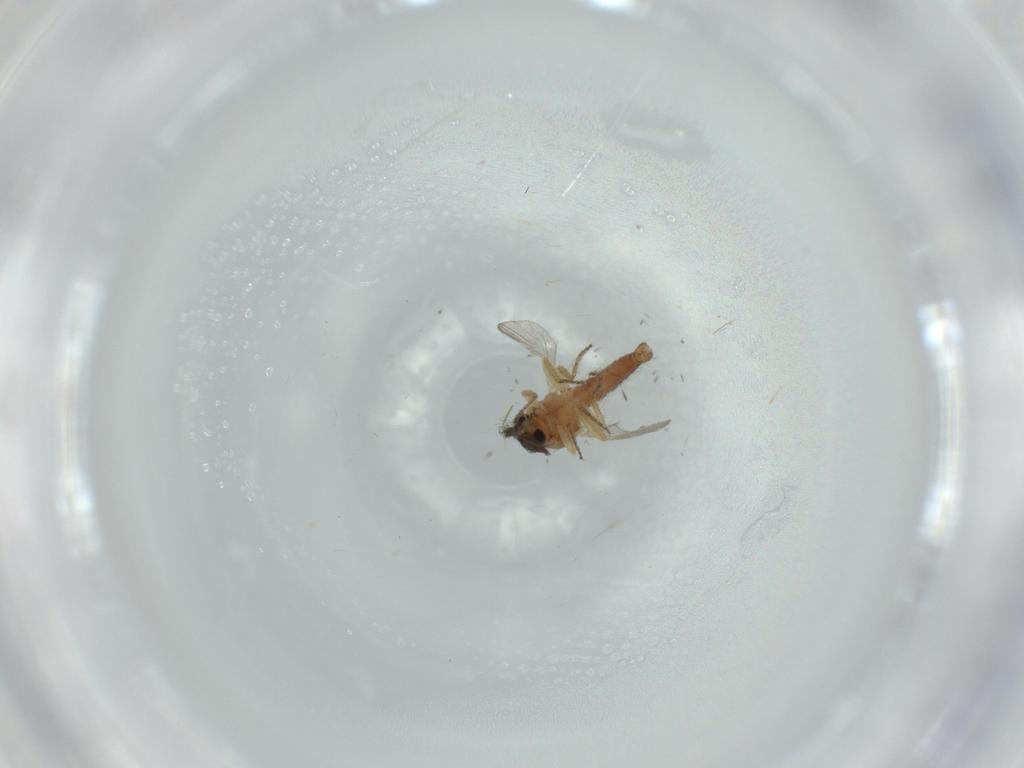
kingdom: Animalia
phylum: Arthropoda
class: Insecta
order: Diptera
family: Ceratopogonidae
